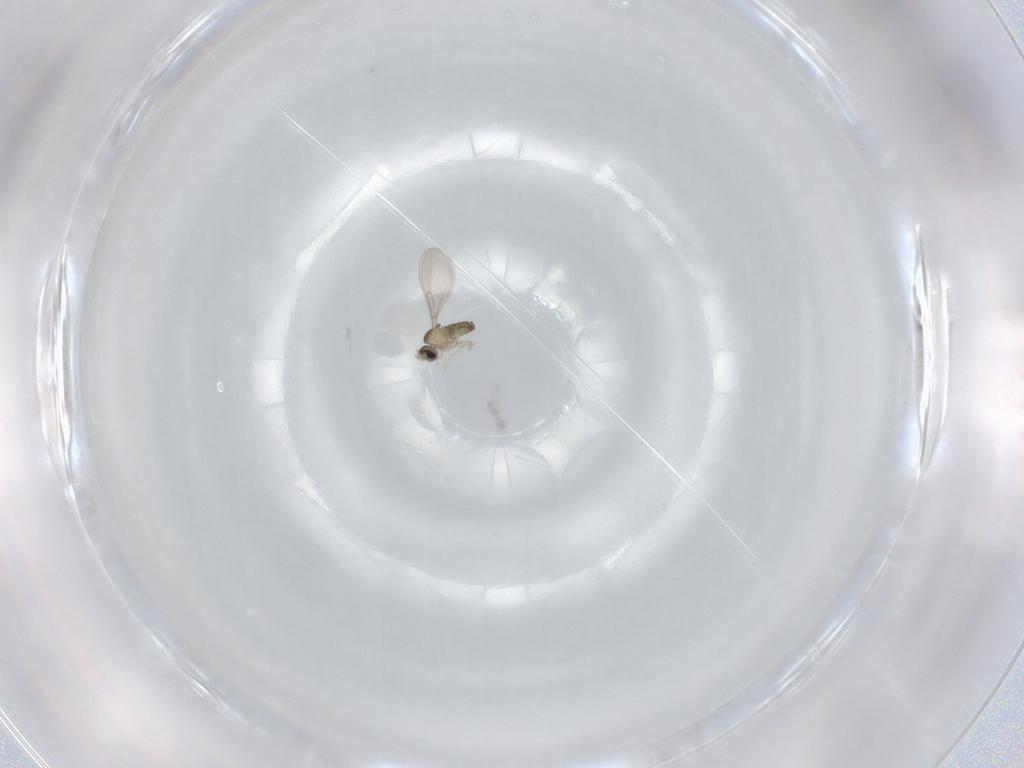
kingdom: Animalia
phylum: Arthropoda
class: Insecta
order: Diptera
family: Cecidomyiidae
